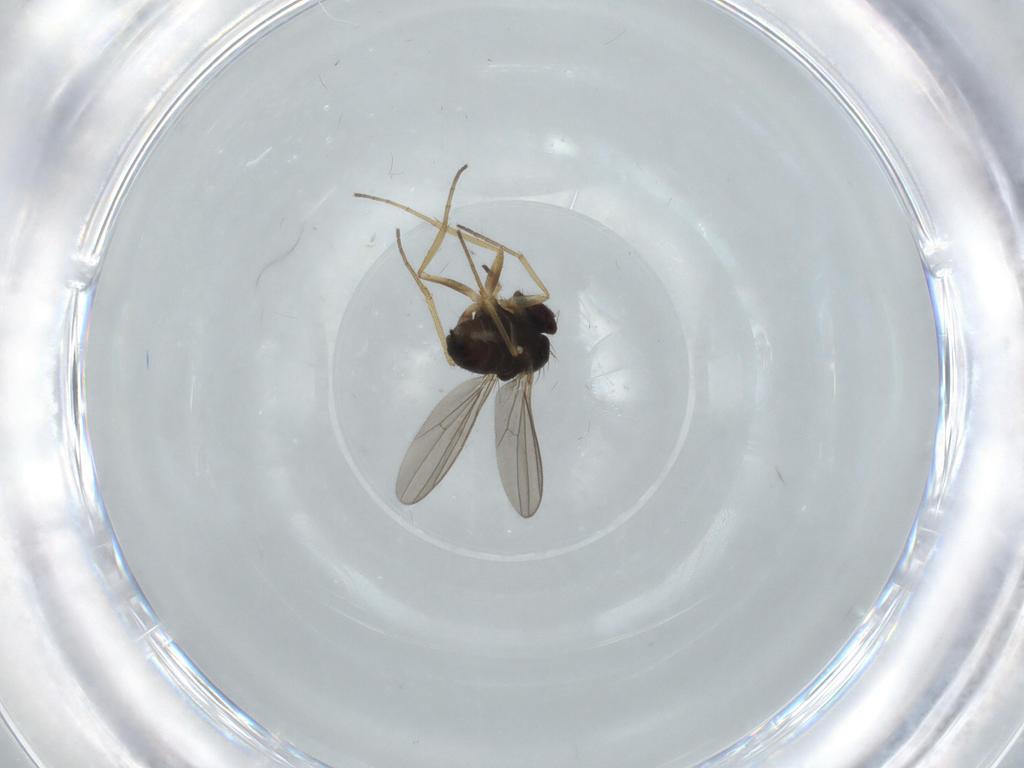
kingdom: Animalia
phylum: Arthropoda
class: Insecta
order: Diptera
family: Dolichopodidae
